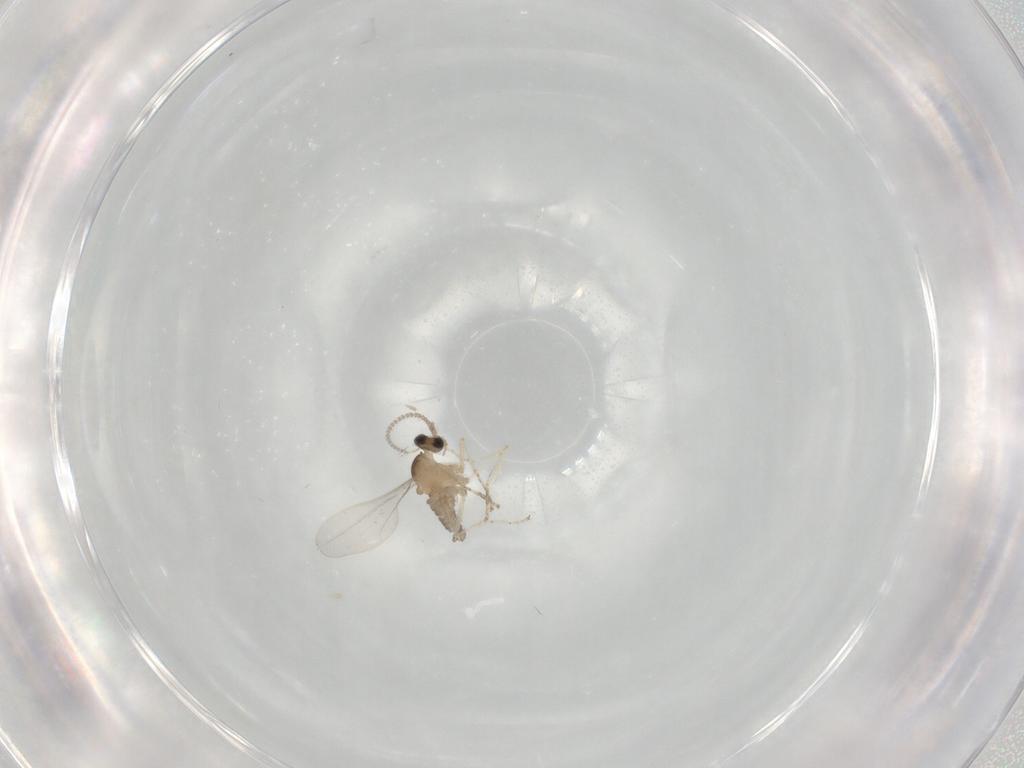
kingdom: Animalia
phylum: Arthropoda
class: Insecta
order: Diptera
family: Cecidomyiidae
